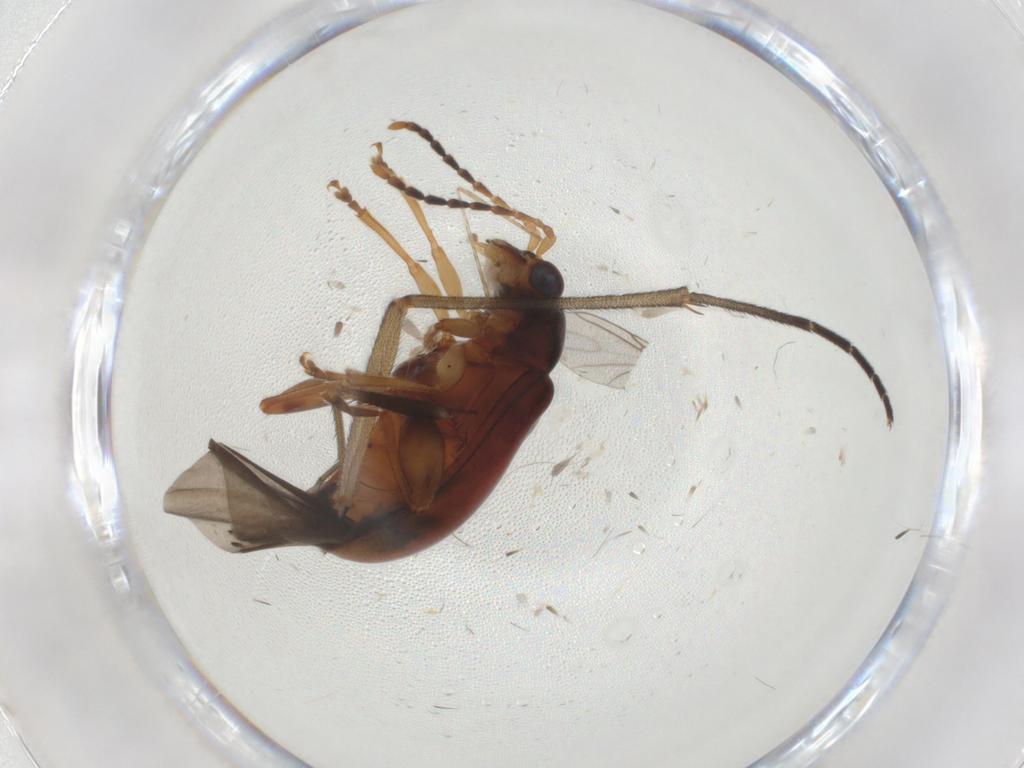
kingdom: Animalia
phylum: Arthropoda
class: Insecta
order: Coleoptera
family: Chrysomelidae
